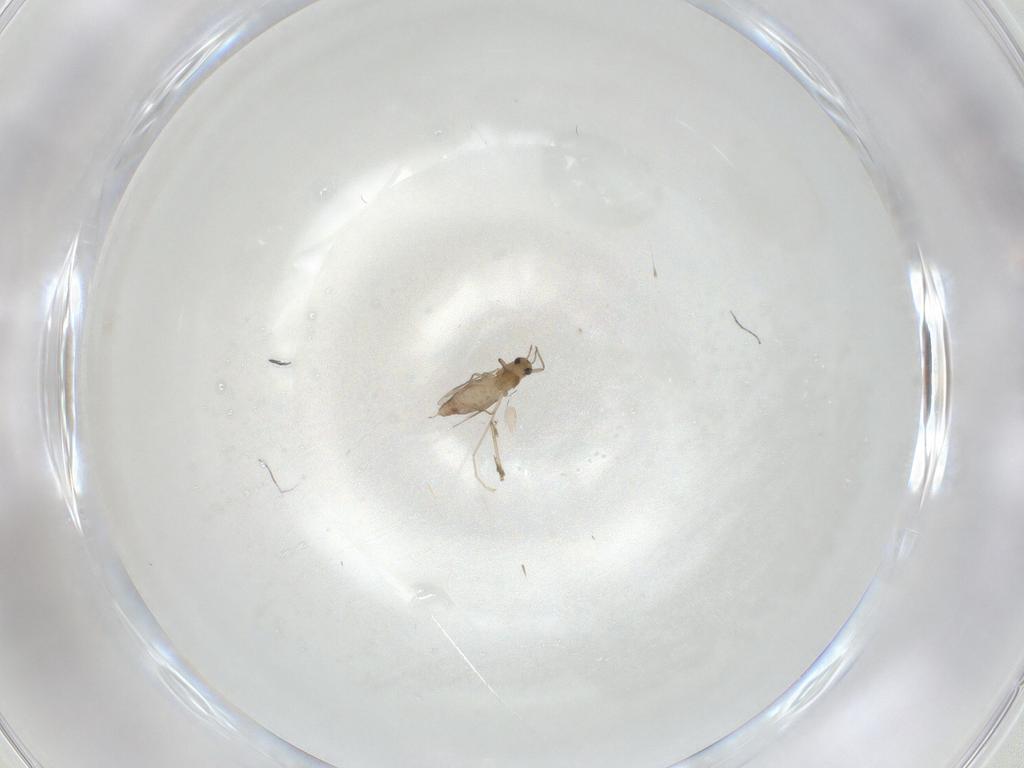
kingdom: Animalia
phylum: Arthropoda
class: Insecta
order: Diptera
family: Chironomidae
